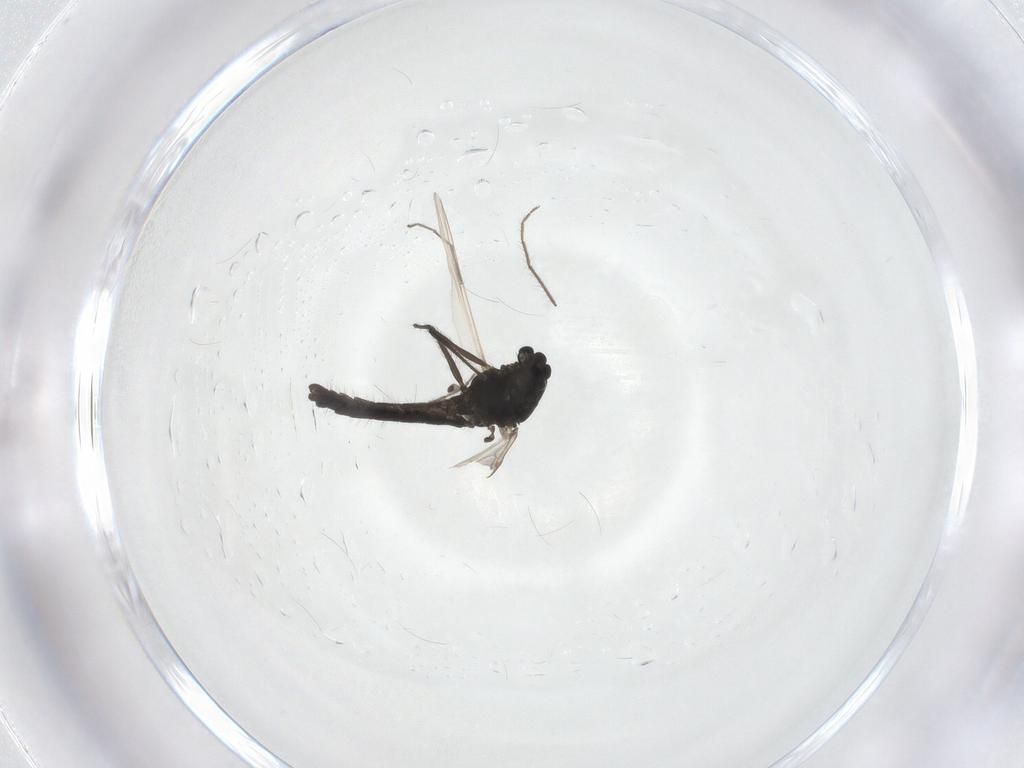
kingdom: Animalia
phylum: Arthropoda
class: Insecta
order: Diptera
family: Chironomidae
